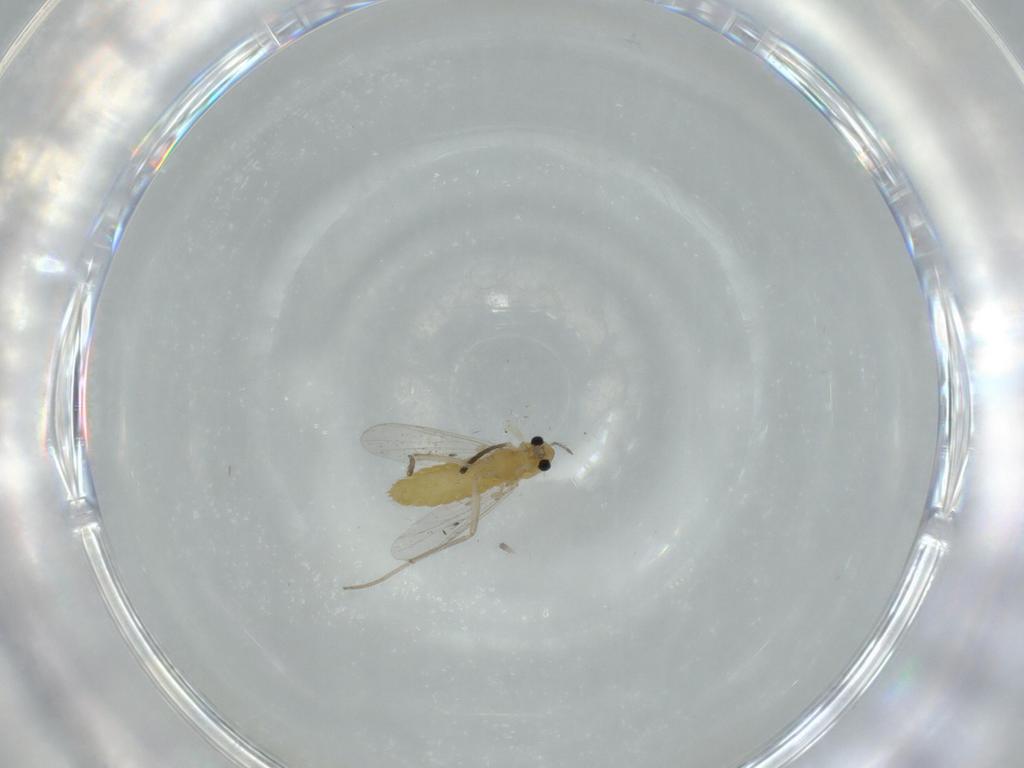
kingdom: Animalia
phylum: Arthropoda
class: Insecta
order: Diptera
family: Chironomidae
